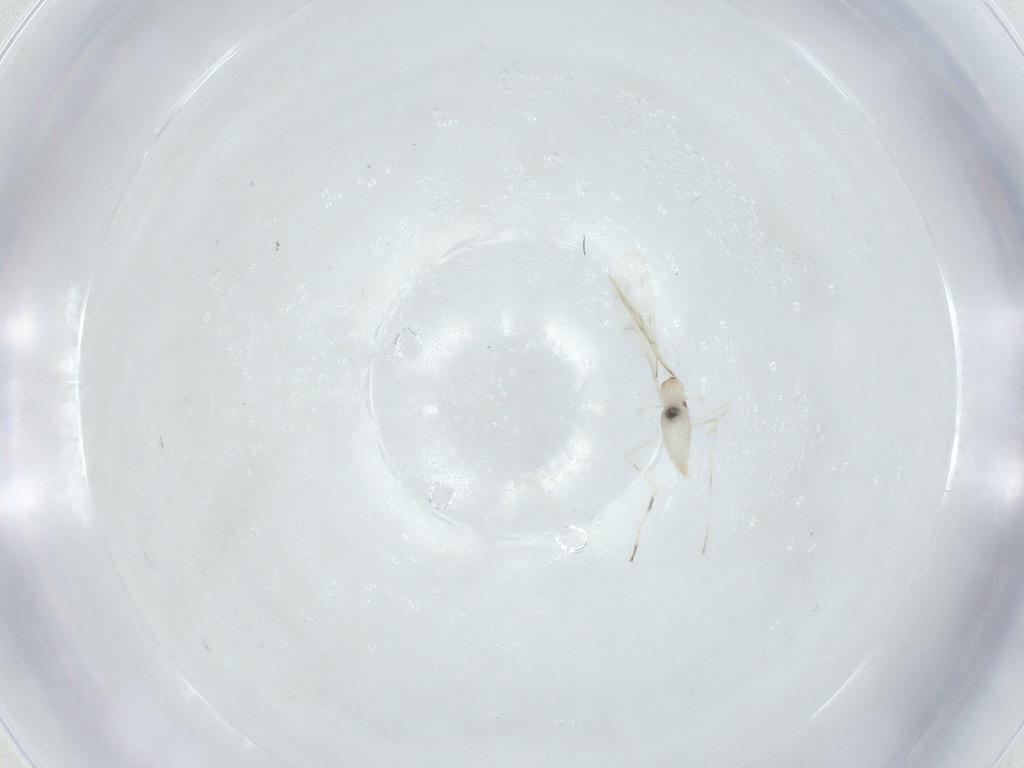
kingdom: Animalia
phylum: Arthropoda
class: Insecta
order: Diptera
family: Cecidomyiidae
